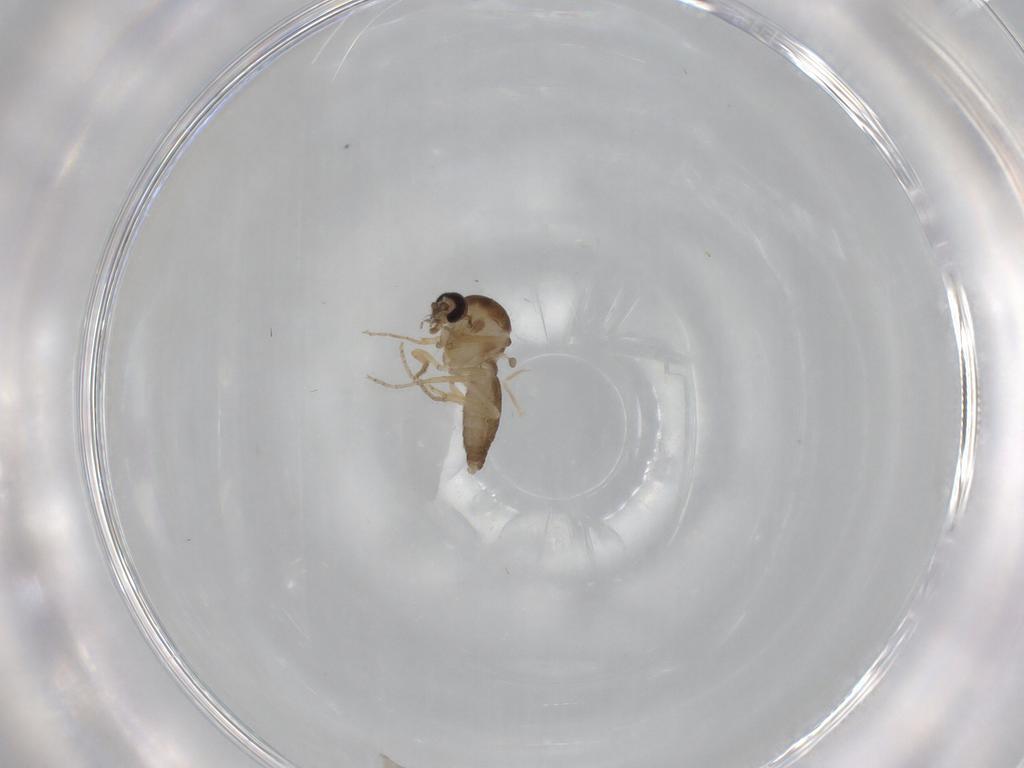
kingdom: Animalia
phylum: Arthropoda
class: Insecta
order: Diptera
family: Ceratopogonidae
